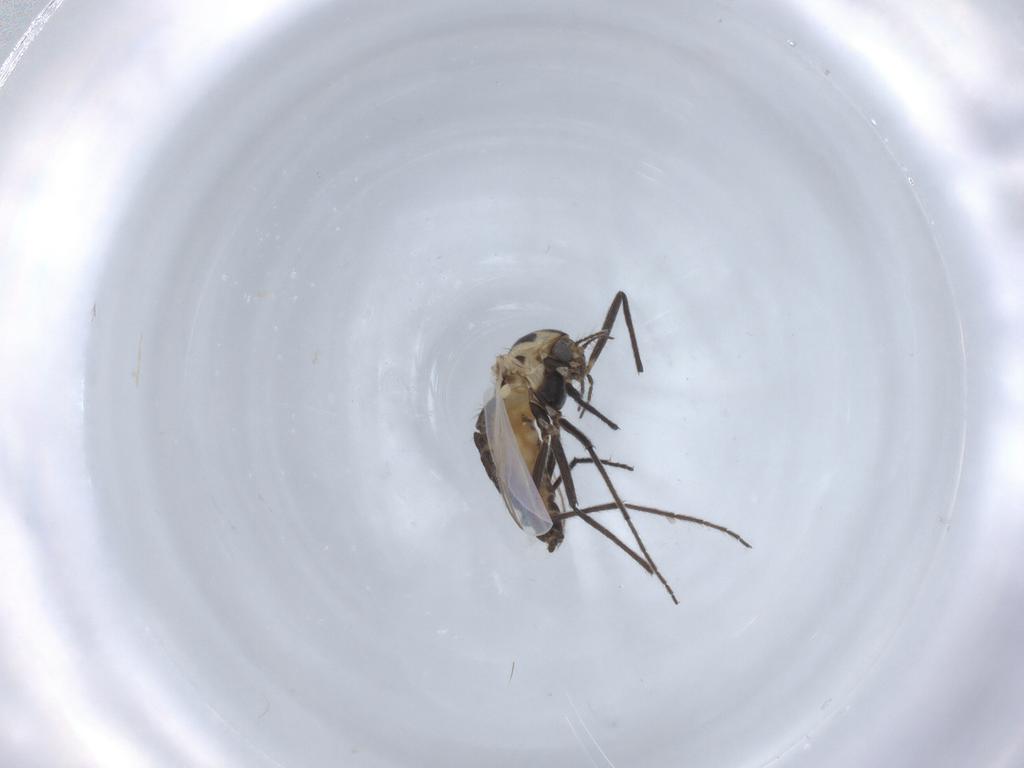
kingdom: Animalia
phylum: Arthropoda
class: Insecta
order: Diptera
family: Chironomidae
